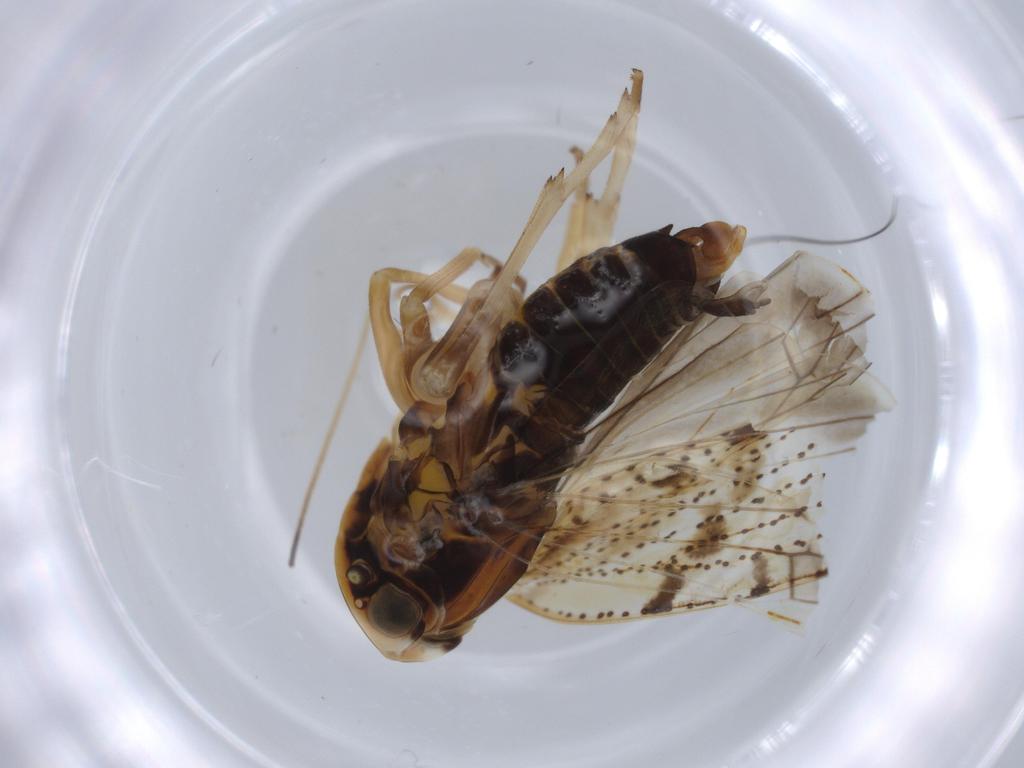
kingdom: Animalia
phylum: Arthropoda
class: Insecta
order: Hemiptera
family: Cixiidae
